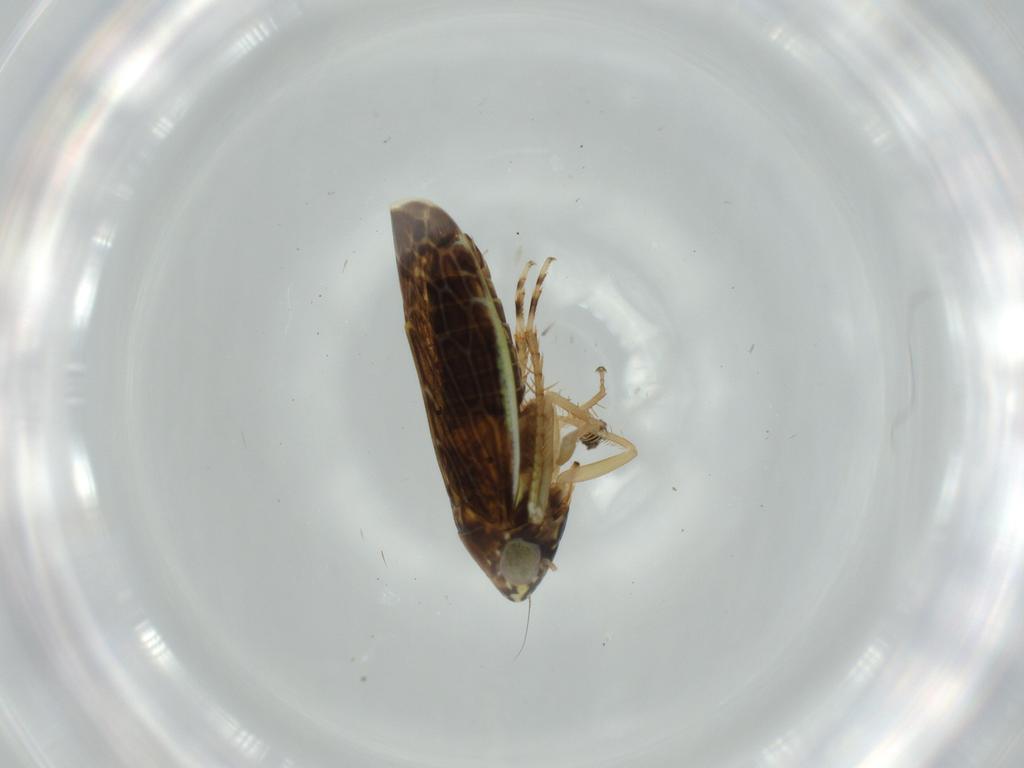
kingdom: Animalia
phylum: Arthropoda
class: Insecta
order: Hemiptera
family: Cicadellidae
